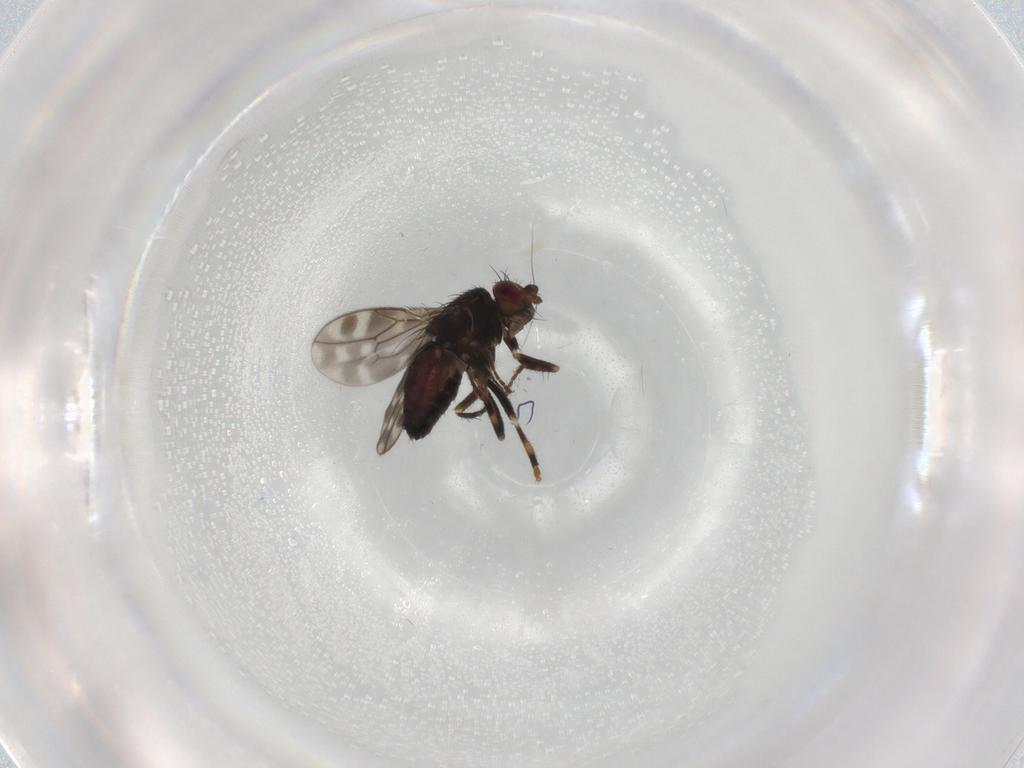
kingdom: Animalia
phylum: Arthropoda
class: Insecta
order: Diptera
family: Sphaeroceridae
